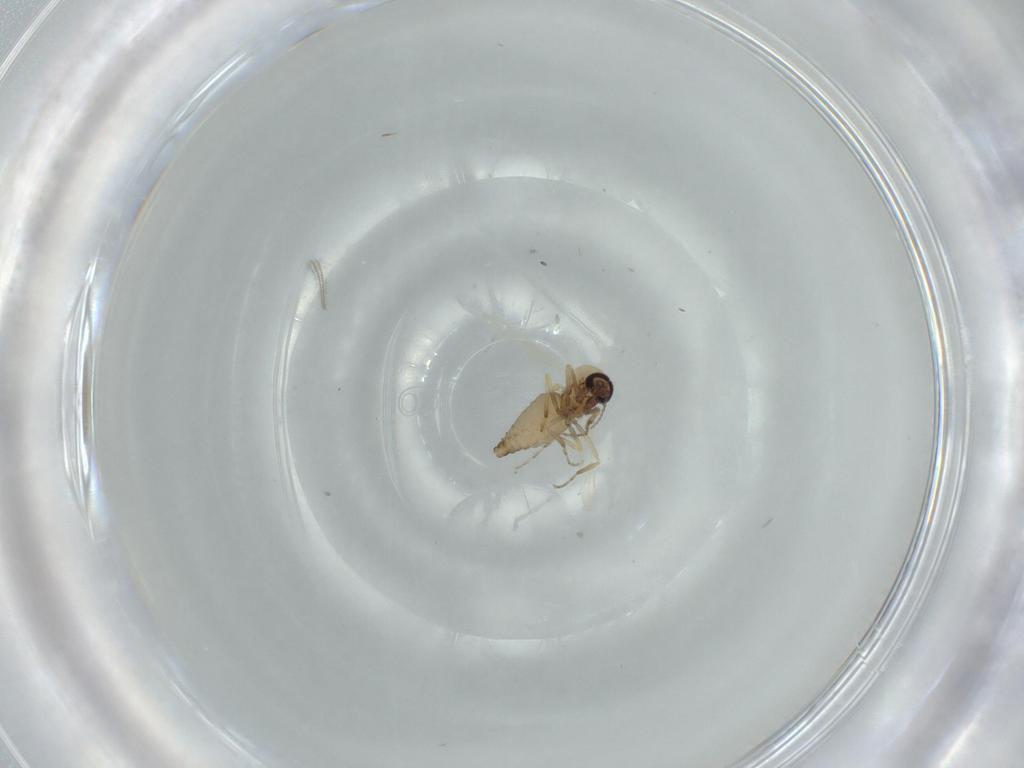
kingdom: Animalia
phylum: Arthropoda
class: Insecta
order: Diptera
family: Chironomidae
